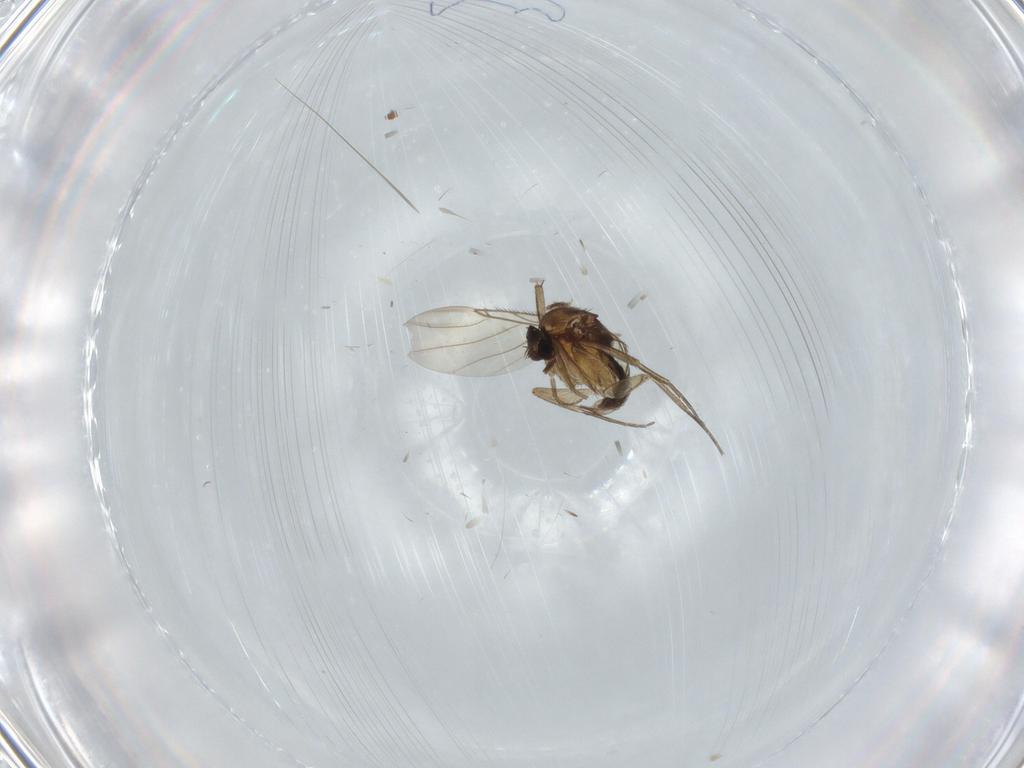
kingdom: Animalia
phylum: Arthropoda
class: Insecta
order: Diptera
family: Phoridae
